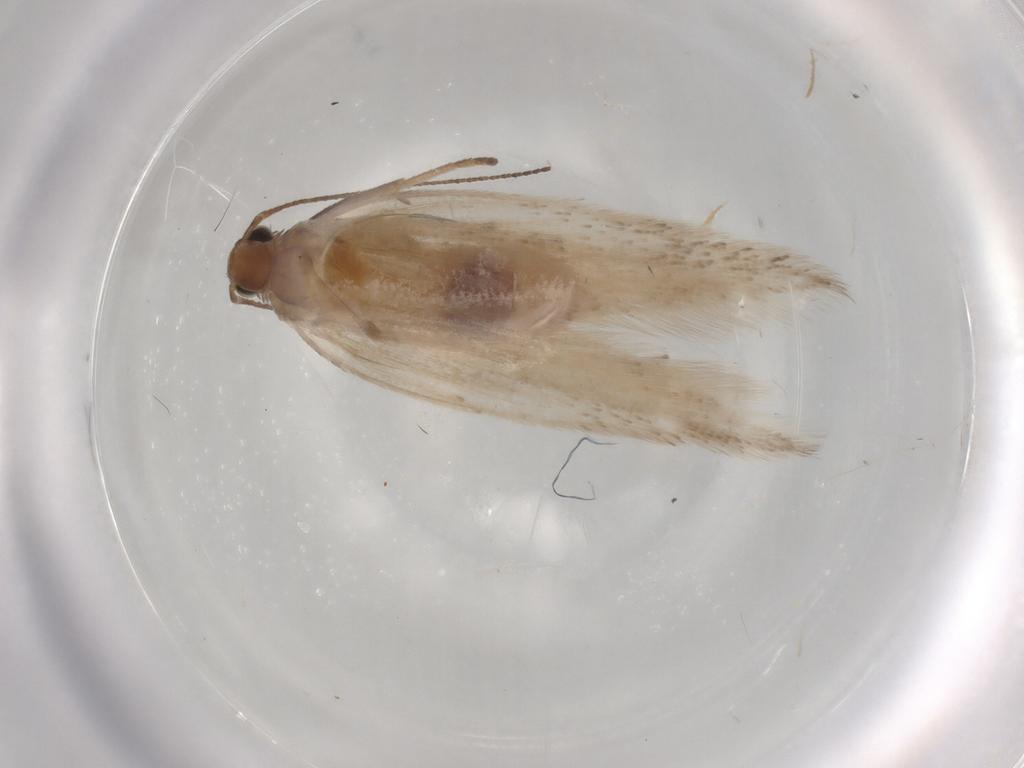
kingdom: Animalia
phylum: Arthropoda
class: Insecta
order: Lepidoptera
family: Gelechiidae
